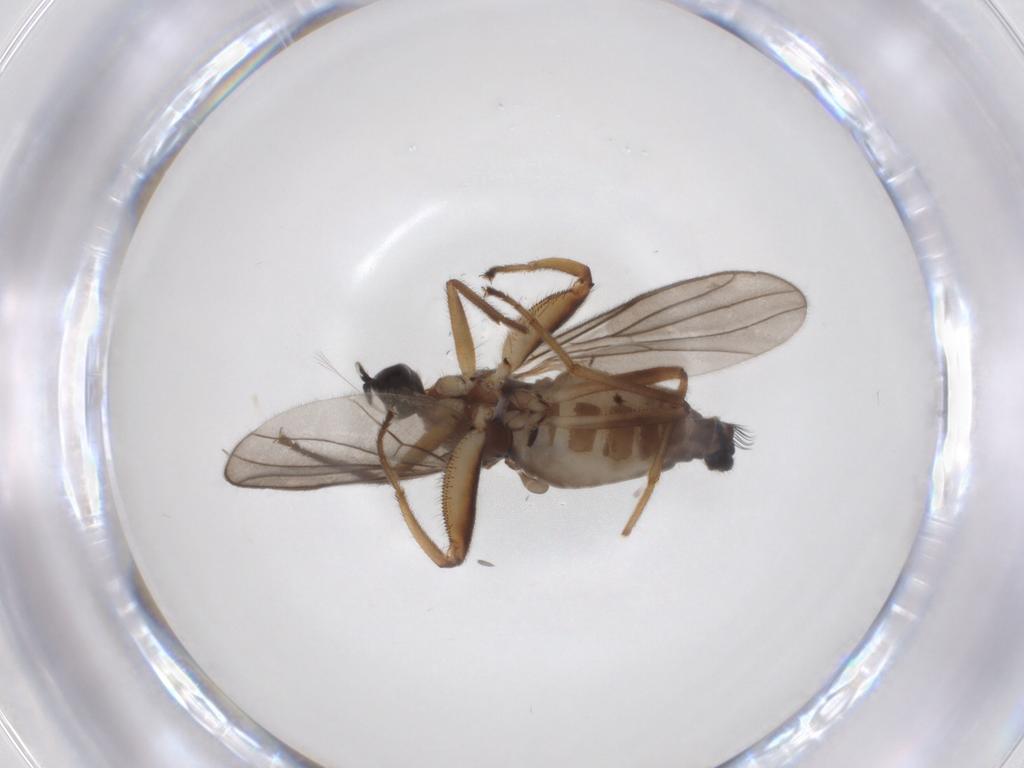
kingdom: Animalia
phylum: Arthropoda
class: Insecta
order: Diptera
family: Hybotidae
